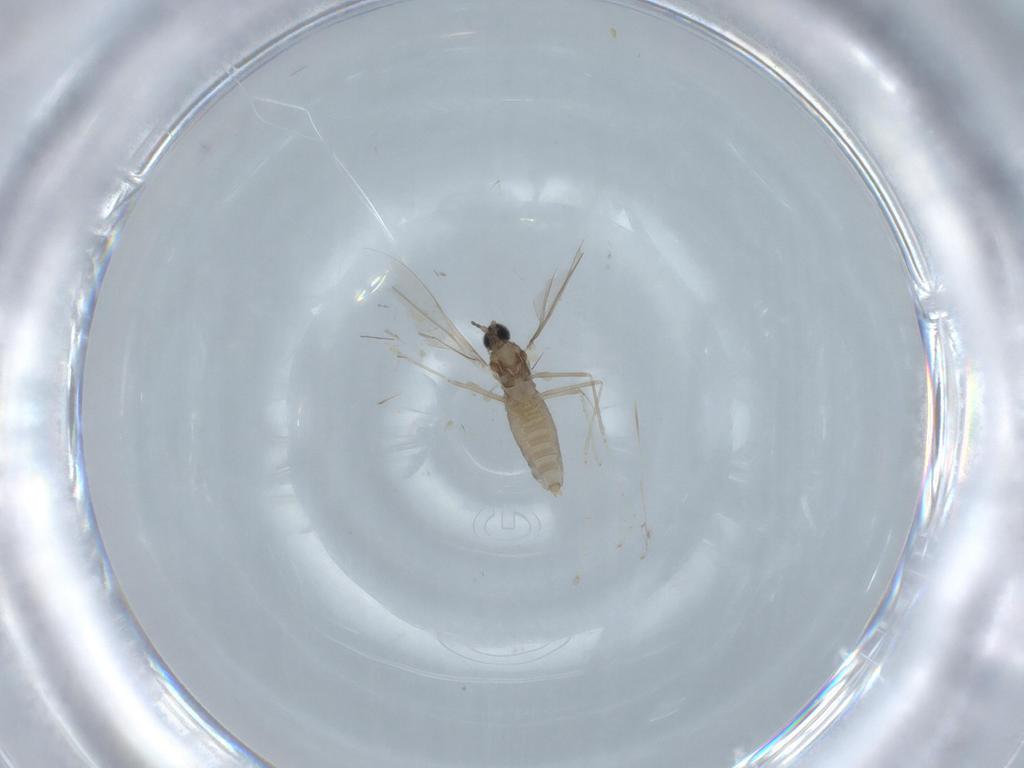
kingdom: Animalia
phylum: Arthropoda
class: Insecta
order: Diptera
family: Cecidomyiidae
